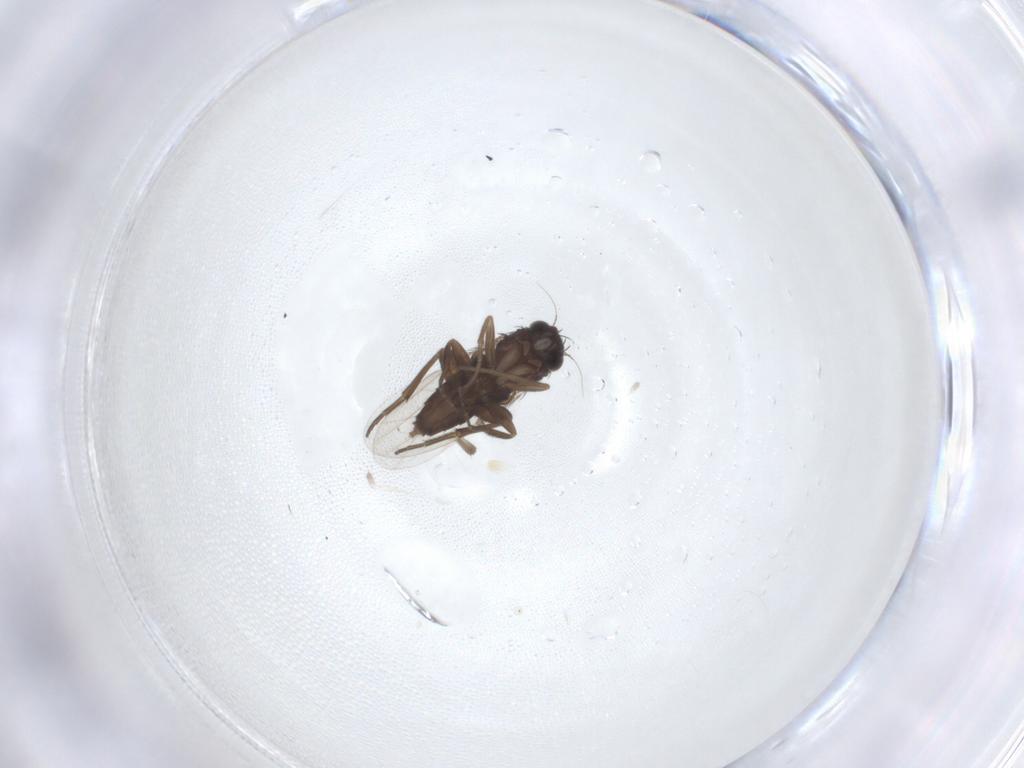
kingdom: Animalia
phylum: Arthropoda
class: Insecta
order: Diptera
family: Phoridae
